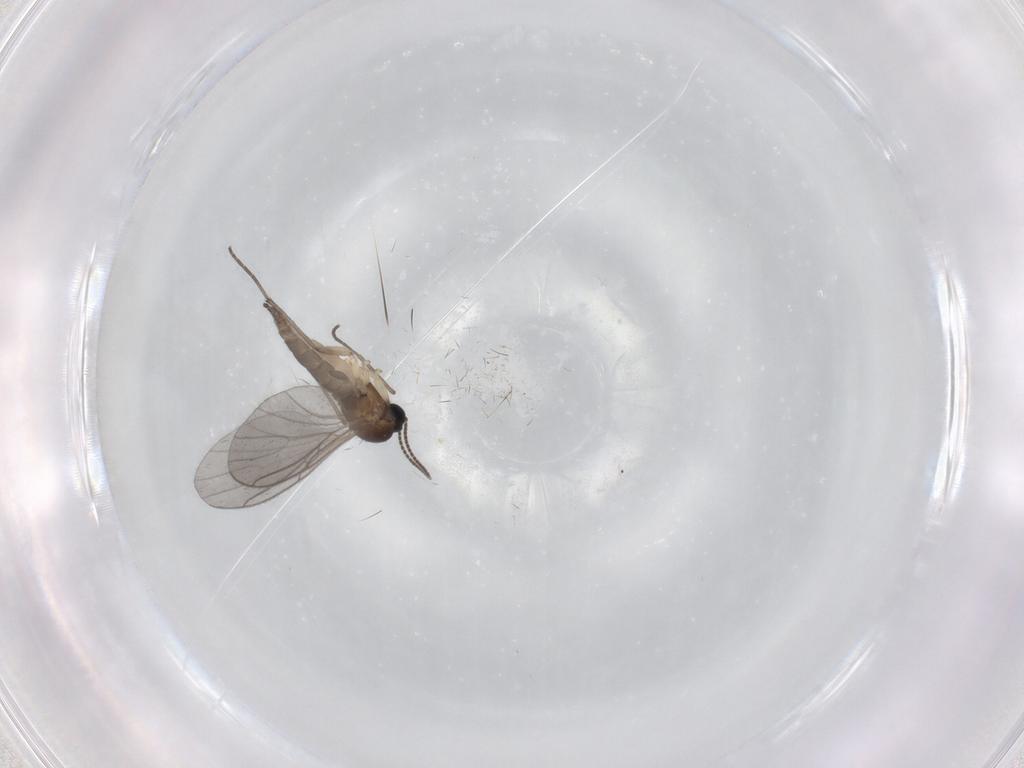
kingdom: Animalia
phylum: Arthropoda
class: Insecta
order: Diptera
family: Sciaridae
